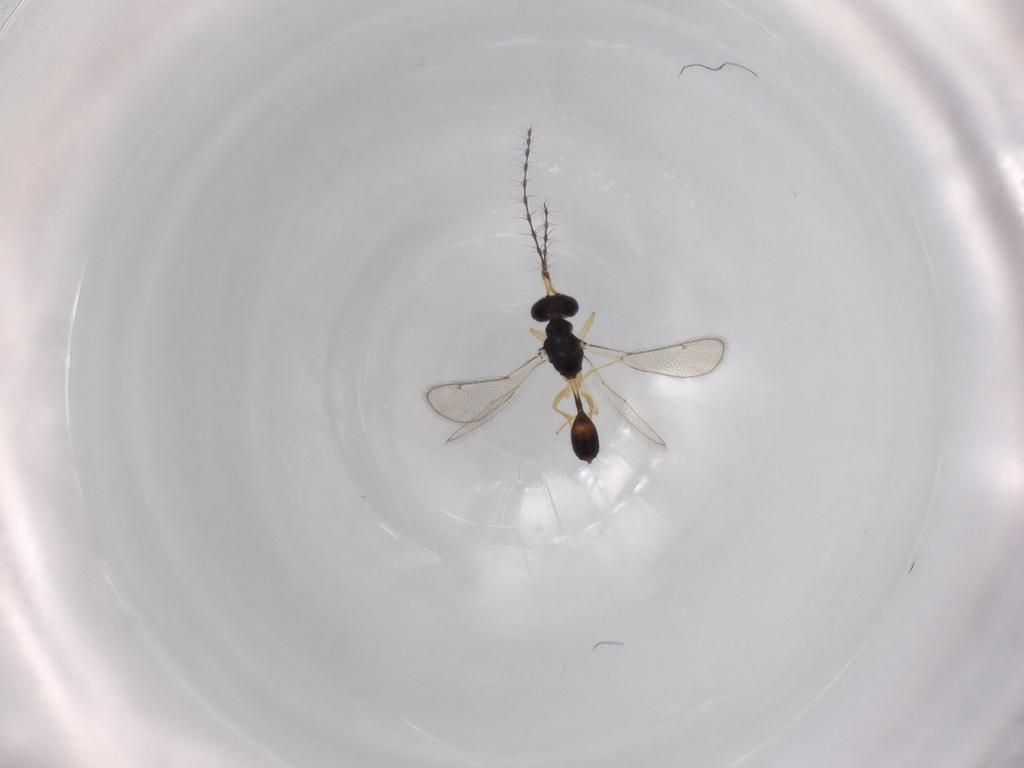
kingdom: Animalia
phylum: Arthropoda
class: Insecta
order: Hymenoptera
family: Diparidae
